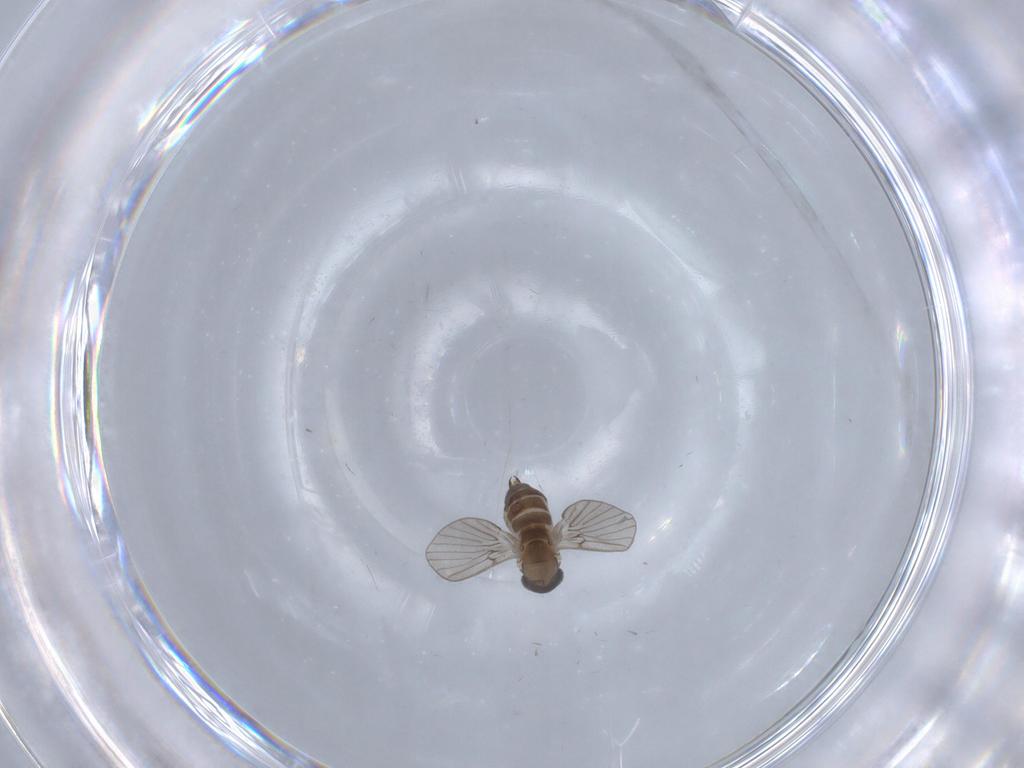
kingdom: Animalia
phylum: Arthropoda
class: Insecta
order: Diptera
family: Psychodidae
